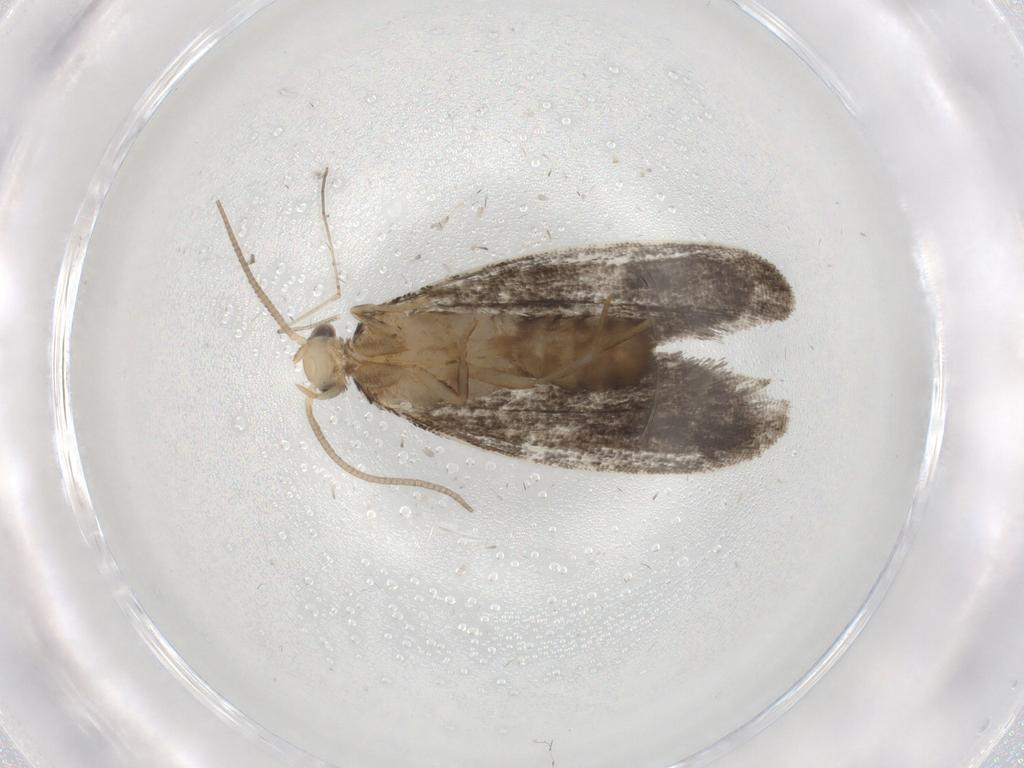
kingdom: Animalia
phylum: Arthropoda
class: Insecta
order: Lepidoptera
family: Dryadaulidae
